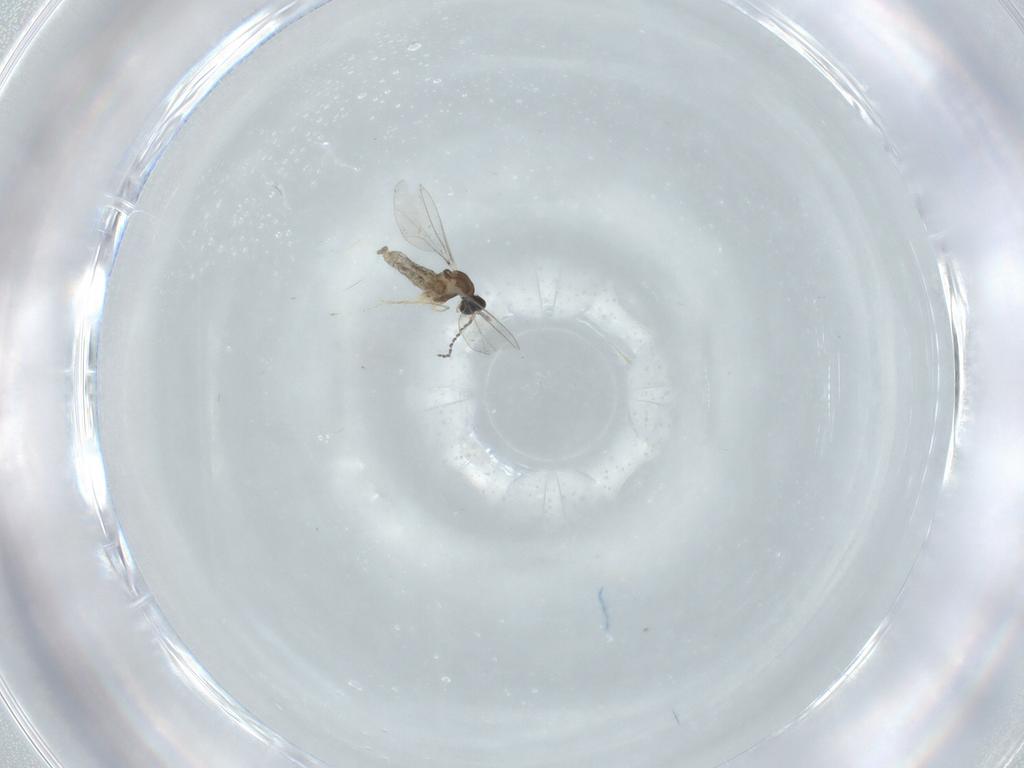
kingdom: Animalia
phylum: Arthropoda
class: Insecta
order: Diptera
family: Cecidomyiidae
